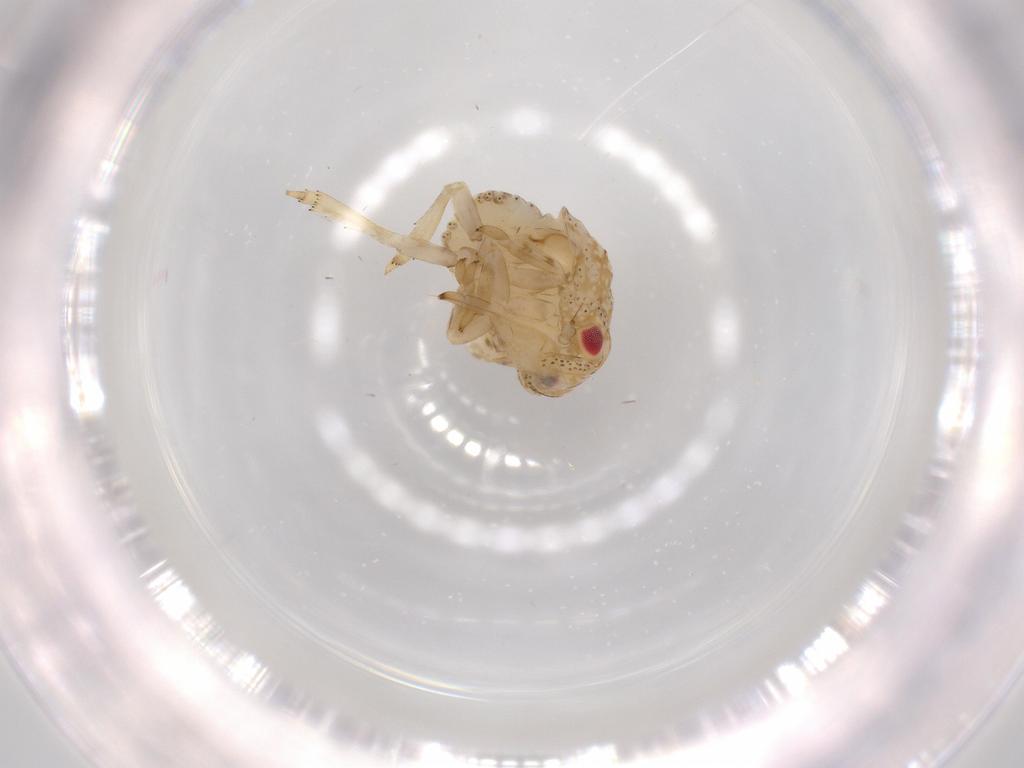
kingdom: Animalia
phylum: Arthropoda
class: Insecta
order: Hemiptera
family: Acanaloniidae
